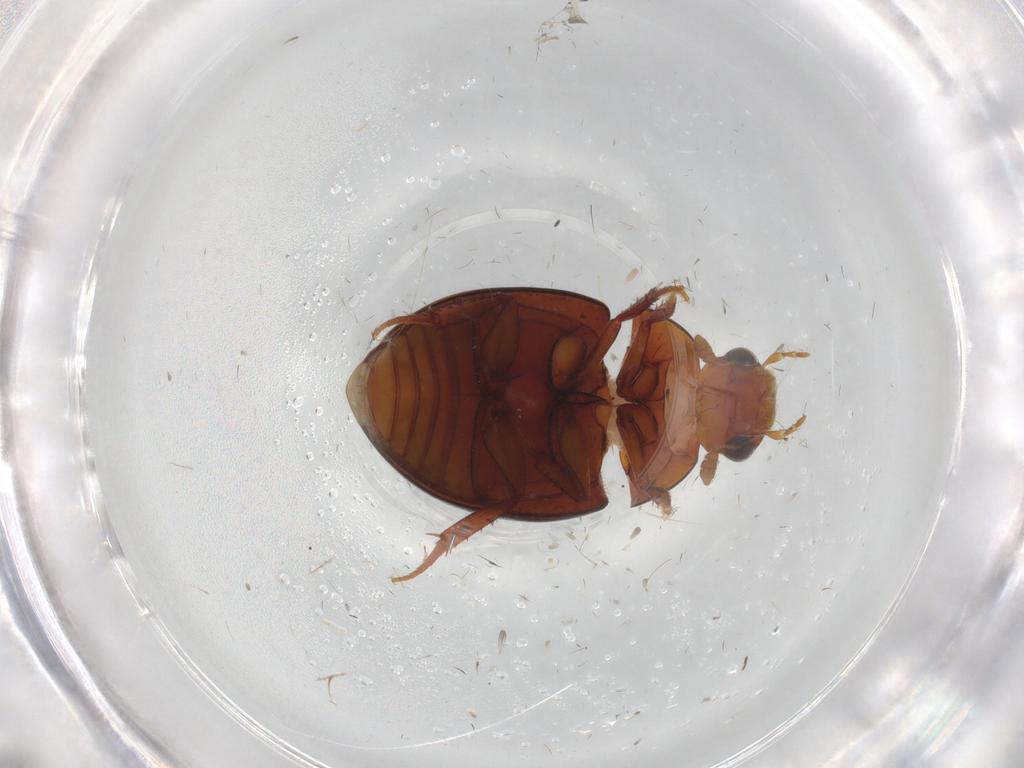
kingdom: Animalia
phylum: Arthropoda
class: Insecta
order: Coleoptera
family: Hydrophilidae
